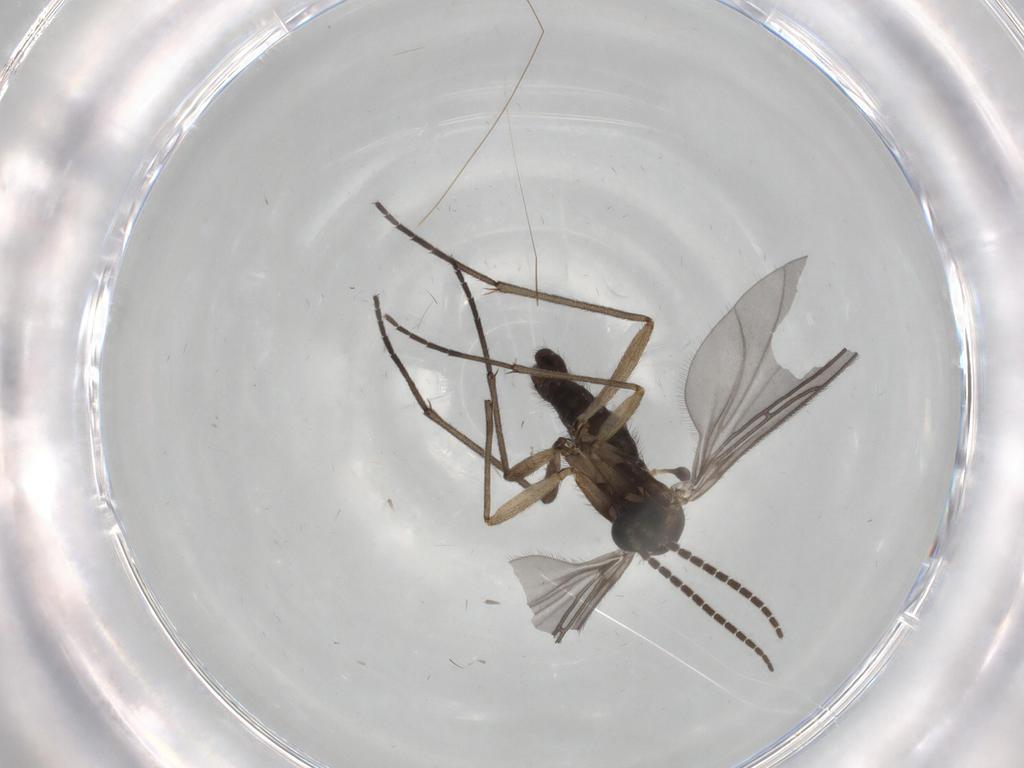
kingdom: Animalia
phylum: Arthropoda
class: Insecta
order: Diptera
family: Sciaridae
